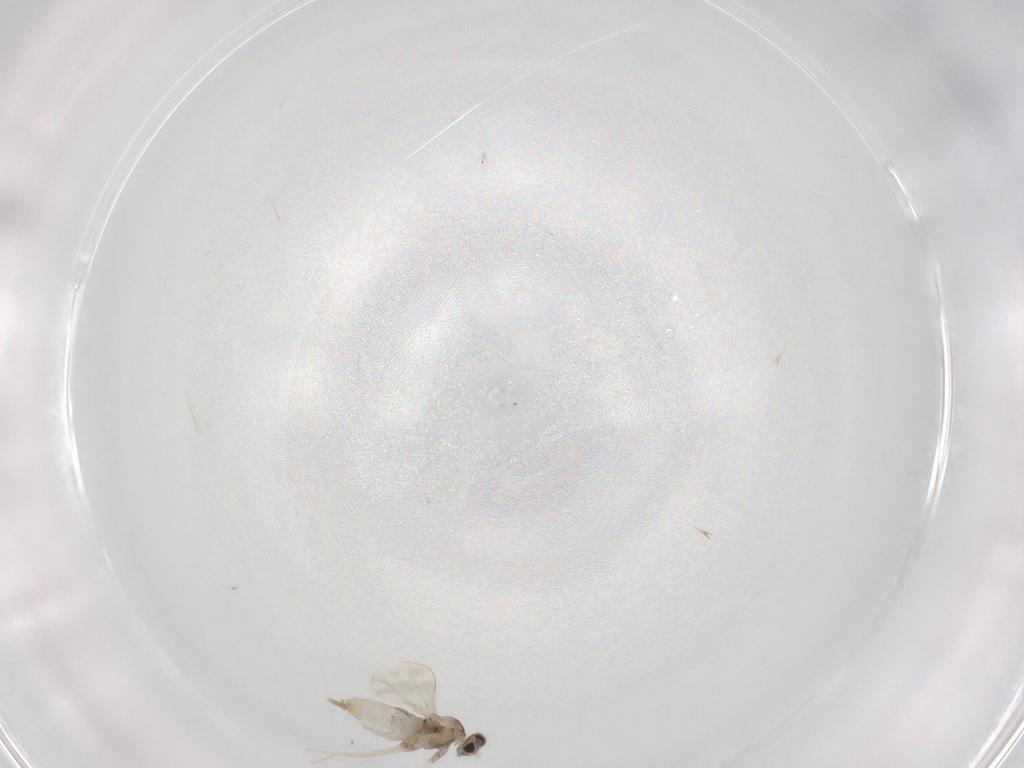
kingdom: Animalia
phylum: Arthropoda
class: Insecta
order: Diptera
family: Cecidomyiidae
